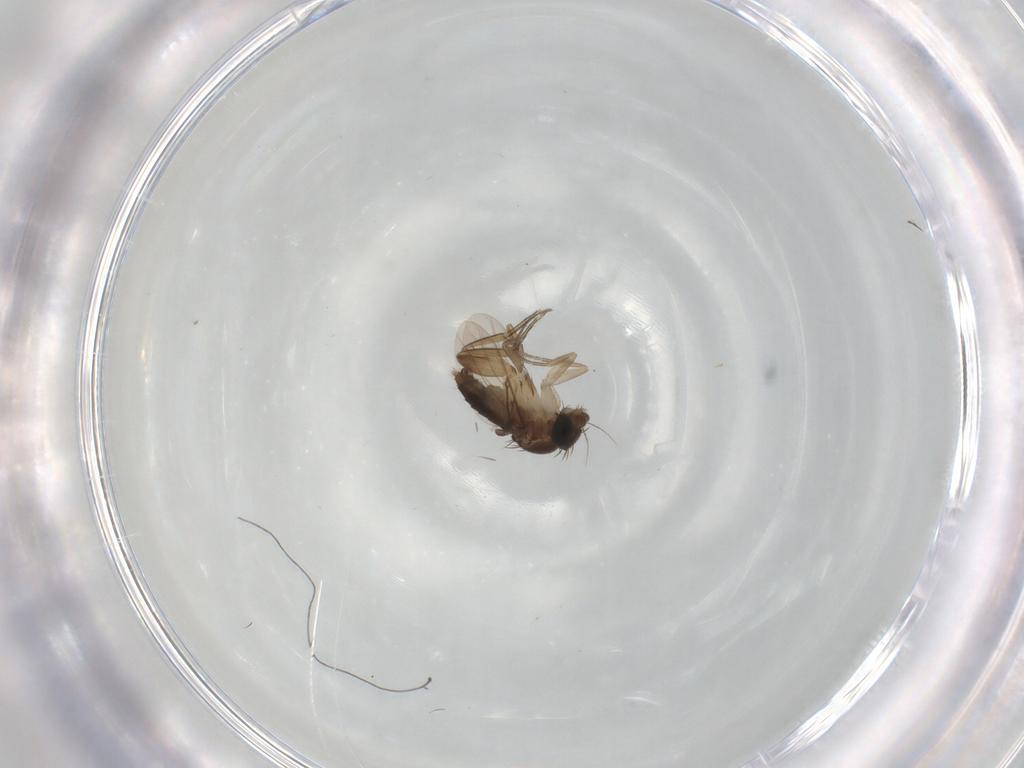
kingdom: Animalia
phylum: Arthropoda
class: Insecta
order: Diptera
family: Phoridae
